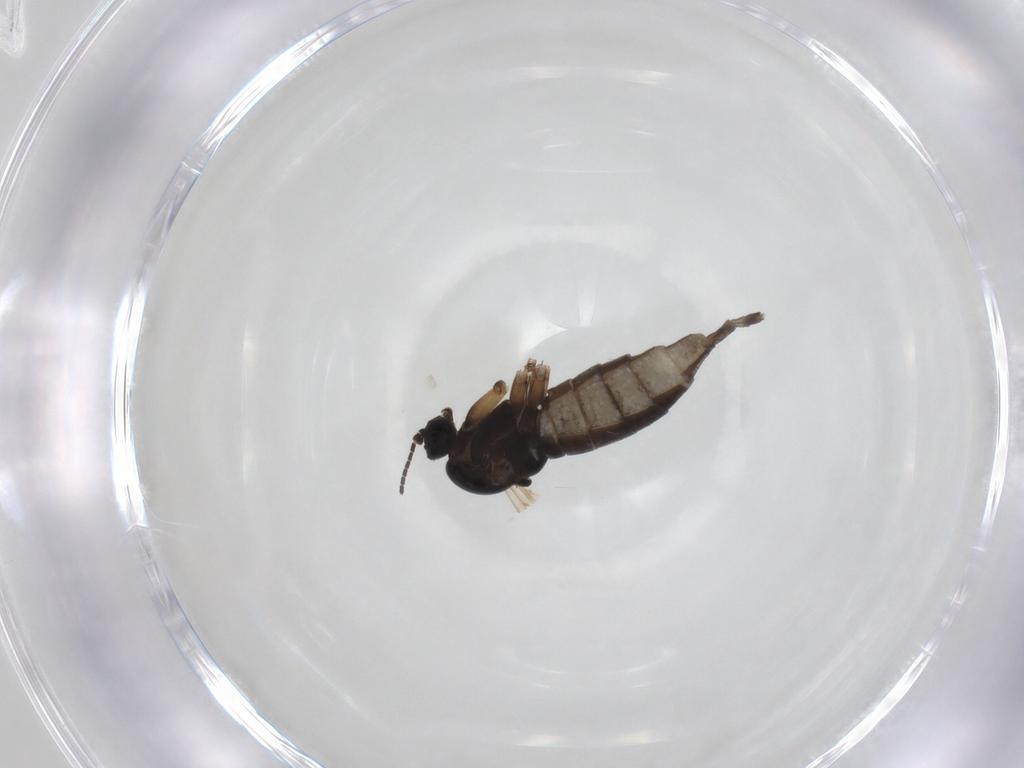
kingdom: Animalia
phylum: Arthropoda
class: Insecta
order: Diptera
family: Sciaridae
